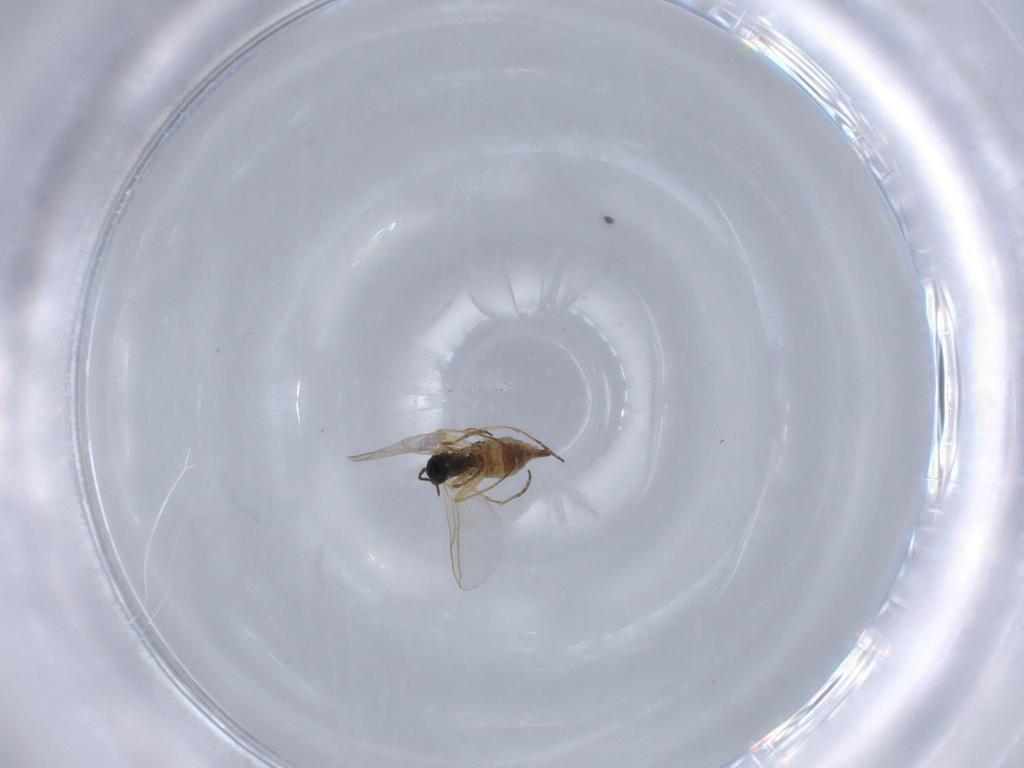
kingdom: Animalia
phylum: Arthropoda
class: Insecta
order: Diptera
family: Sciaridae
